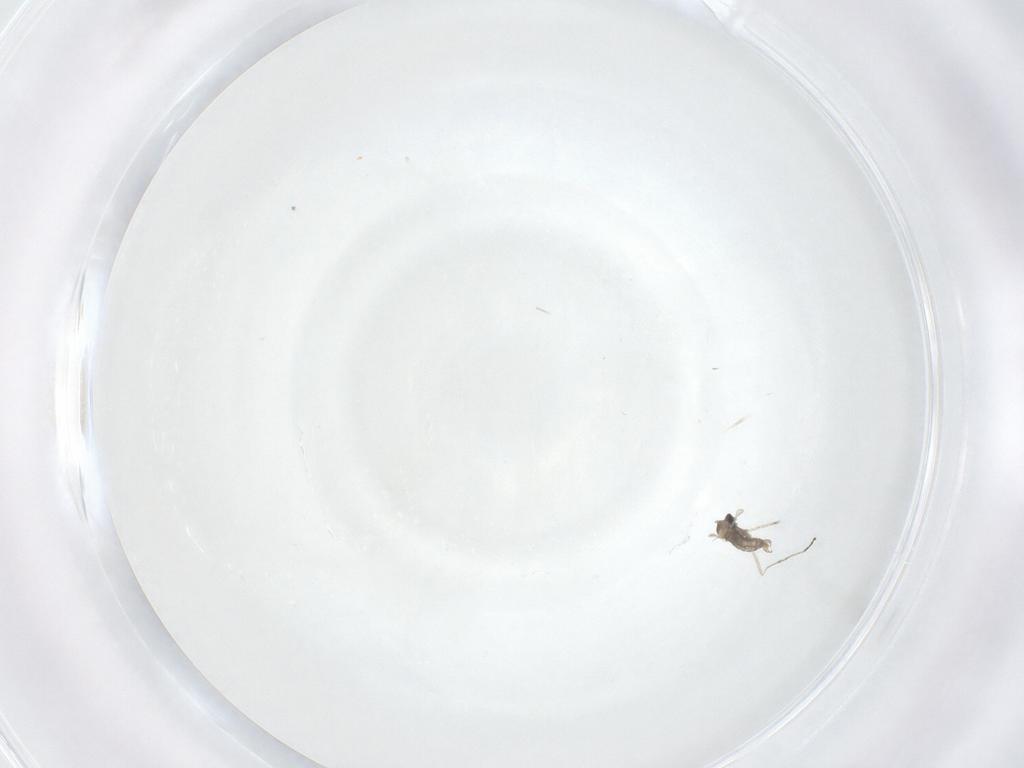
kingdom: Animalia
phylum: Arthropoda
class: Insecta
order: Diptera
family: Cecidomyiidae
